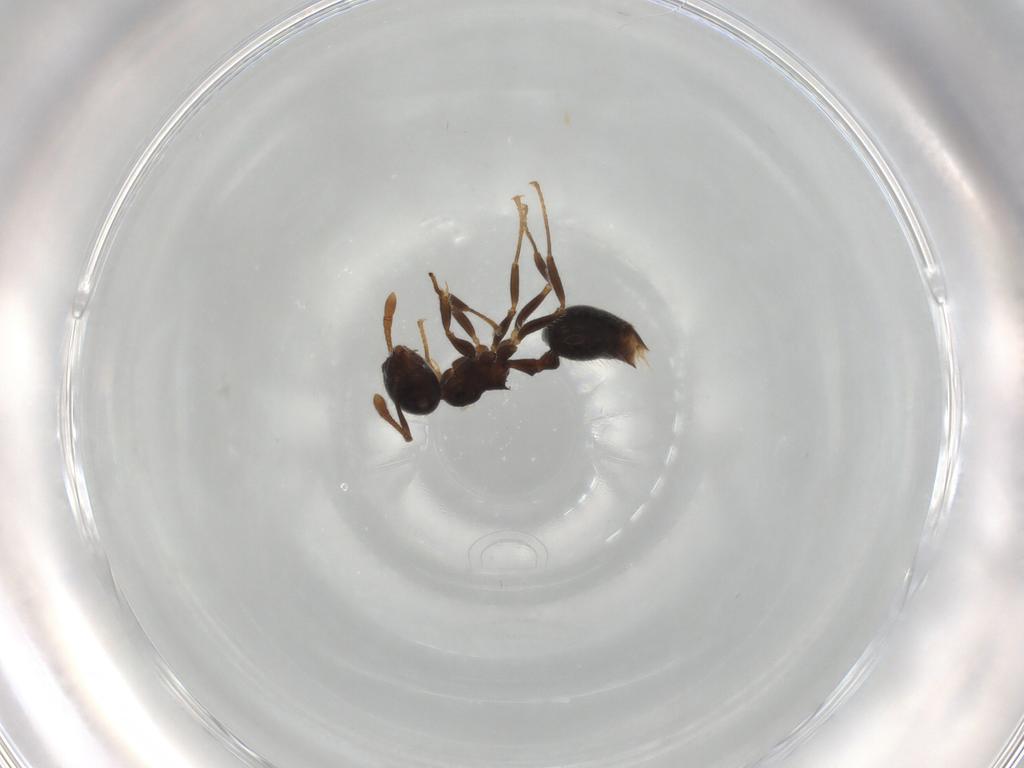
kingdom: Animalia
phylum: Arthropoda
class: Insecta
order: Hymenoptera
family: Formicidae
